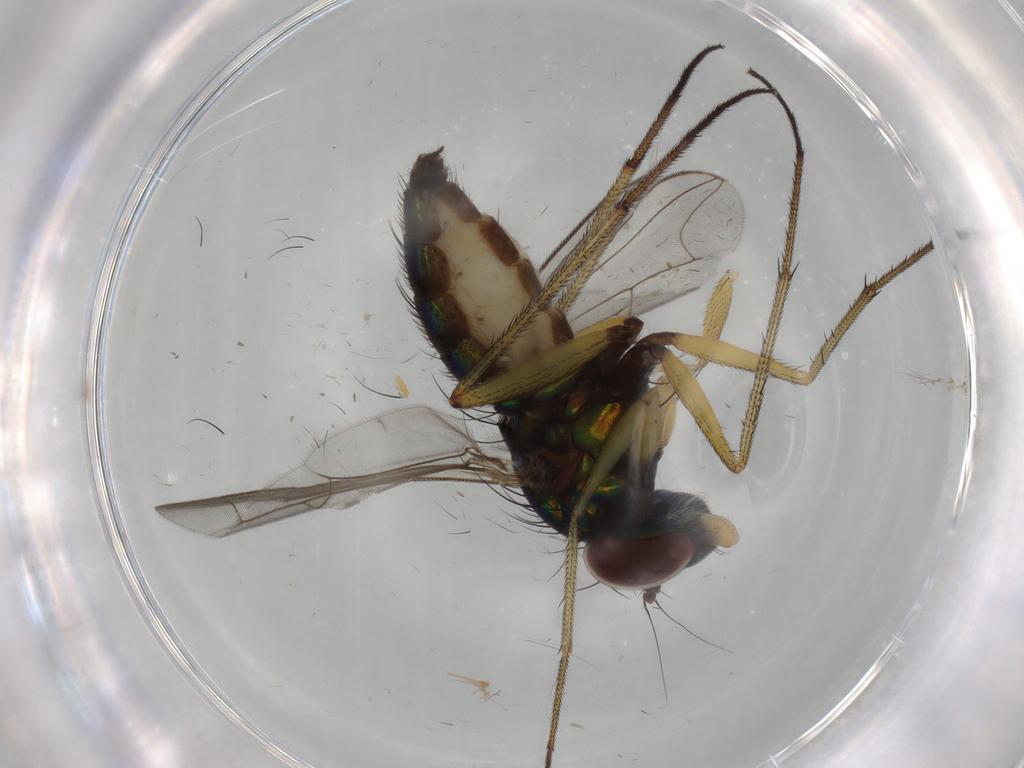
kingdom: Animalia
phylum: Arthropoda
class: Insecta
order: Diptera
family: Dolichopodidae
